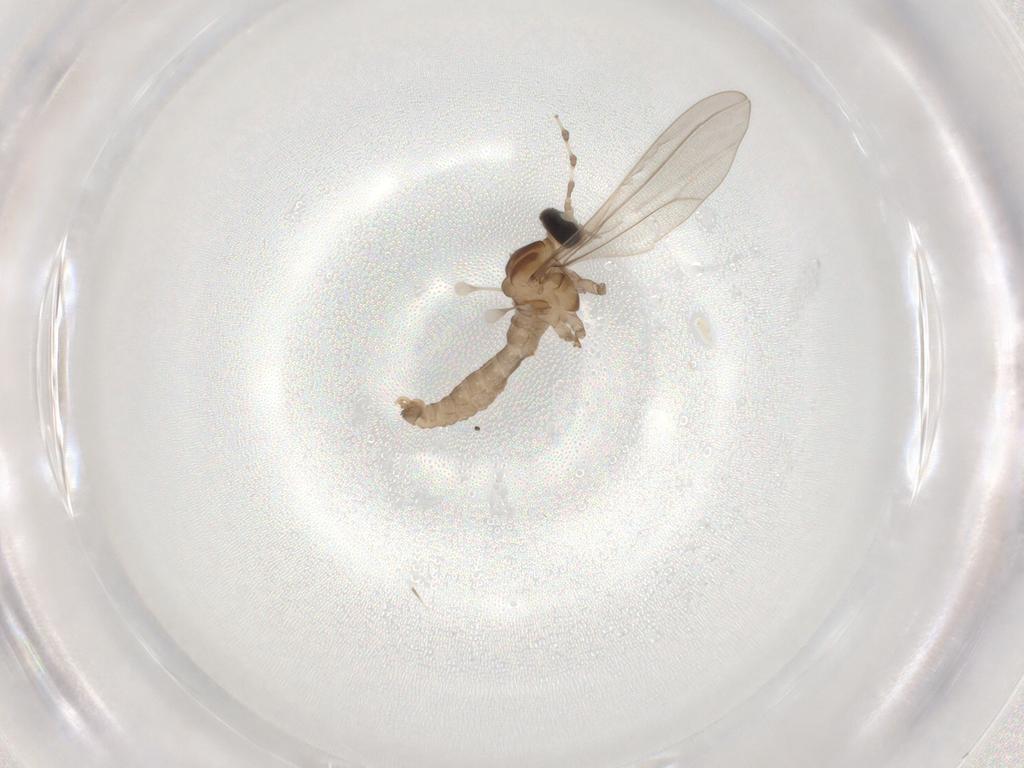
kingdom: Animalia
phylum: Arthropoda
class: Insecta
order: Diptera
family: Phoridae
